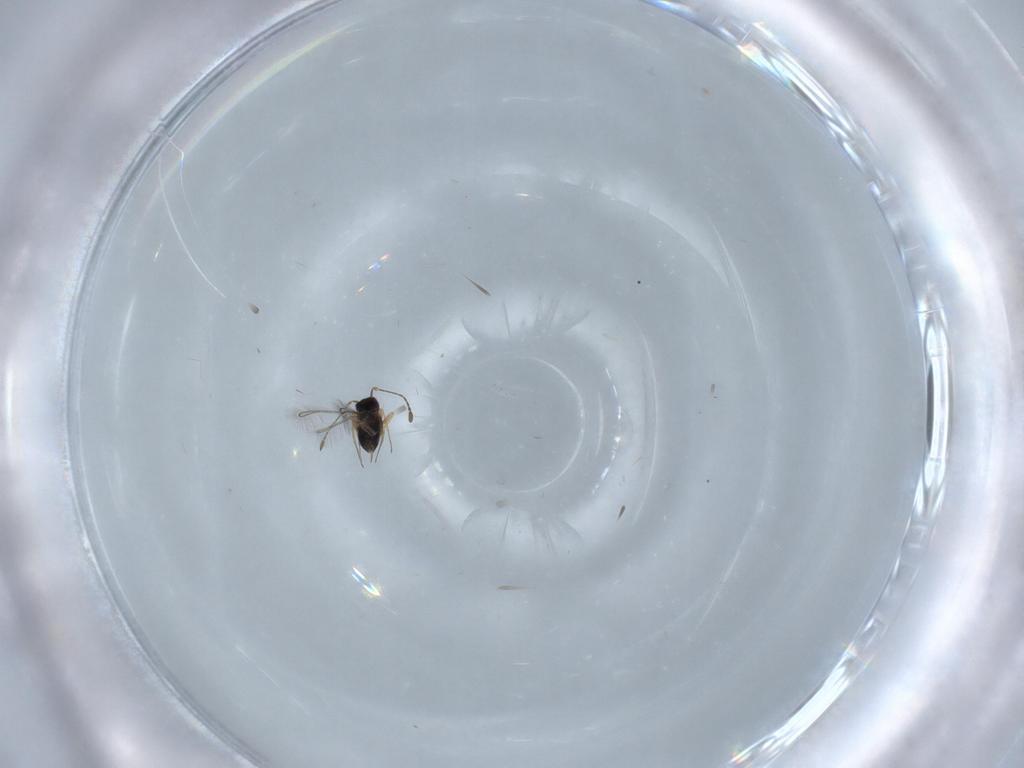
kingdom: Animalia
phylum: Arthropoda
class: Insecta
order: Hymenoptera
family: Mymaridae
